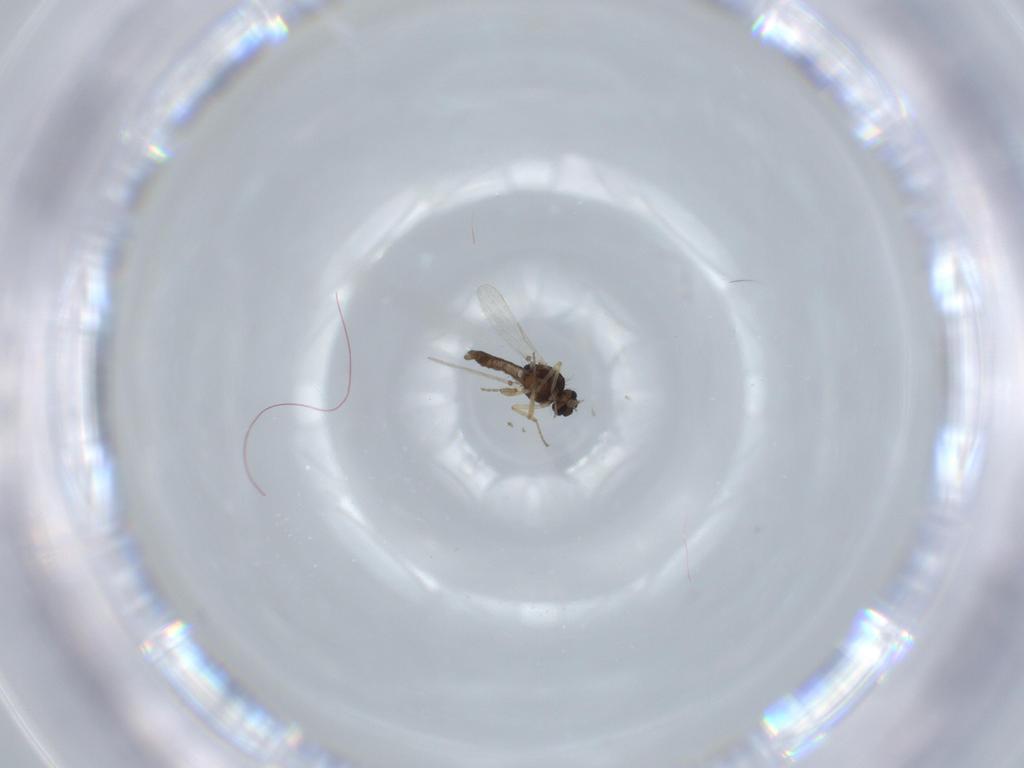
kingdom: Animalia
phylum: Arthropoda
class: Insecta
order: Diptera
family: Ceratopogonidae
